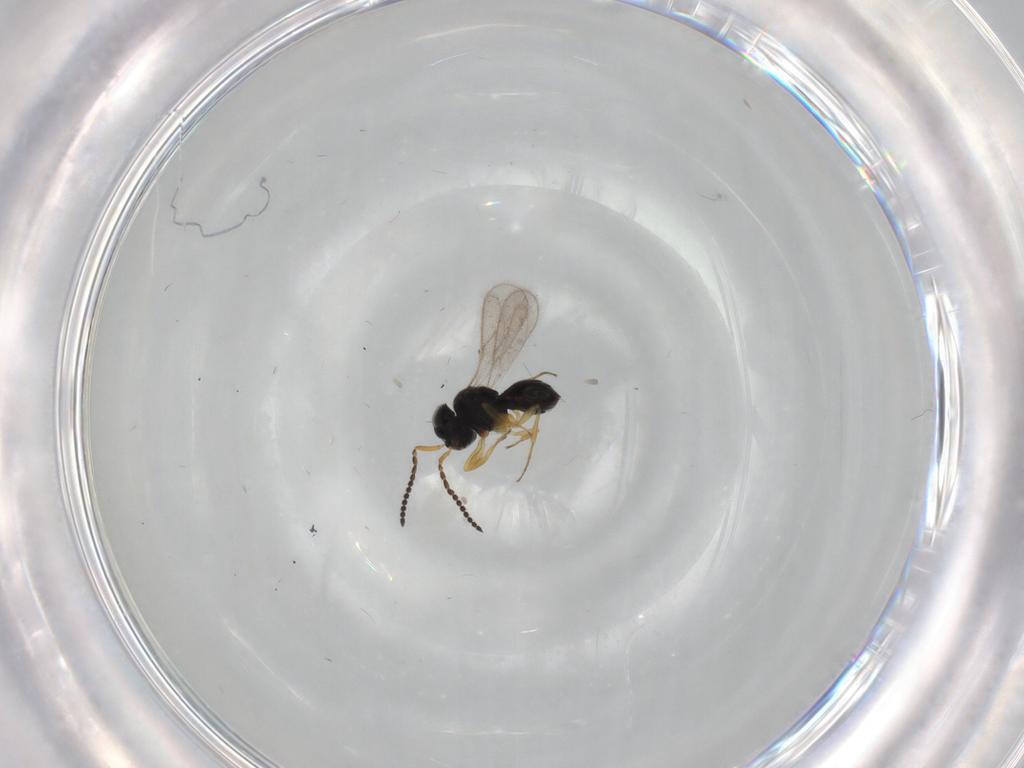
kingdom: Animalia
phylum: Arthropoda
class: Insecta
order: Hymenoptera
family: Scelionidae
